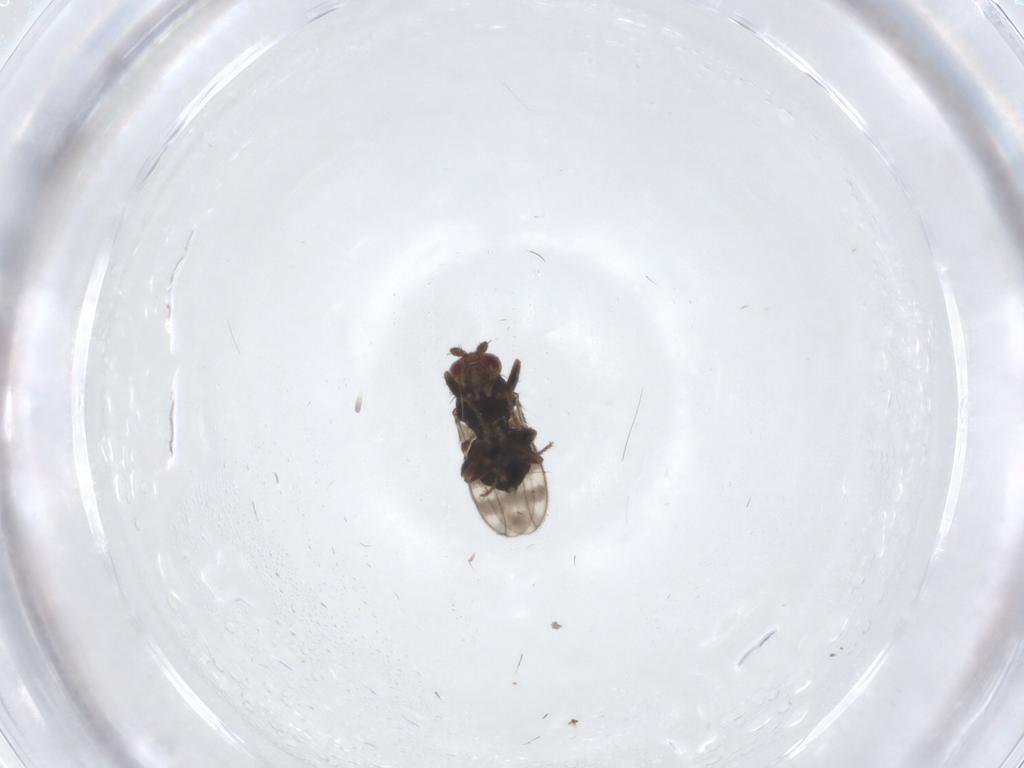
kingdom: Animalia
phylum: Arthropoda
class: Insecta
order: Diptera
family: Sphaeroceridae
